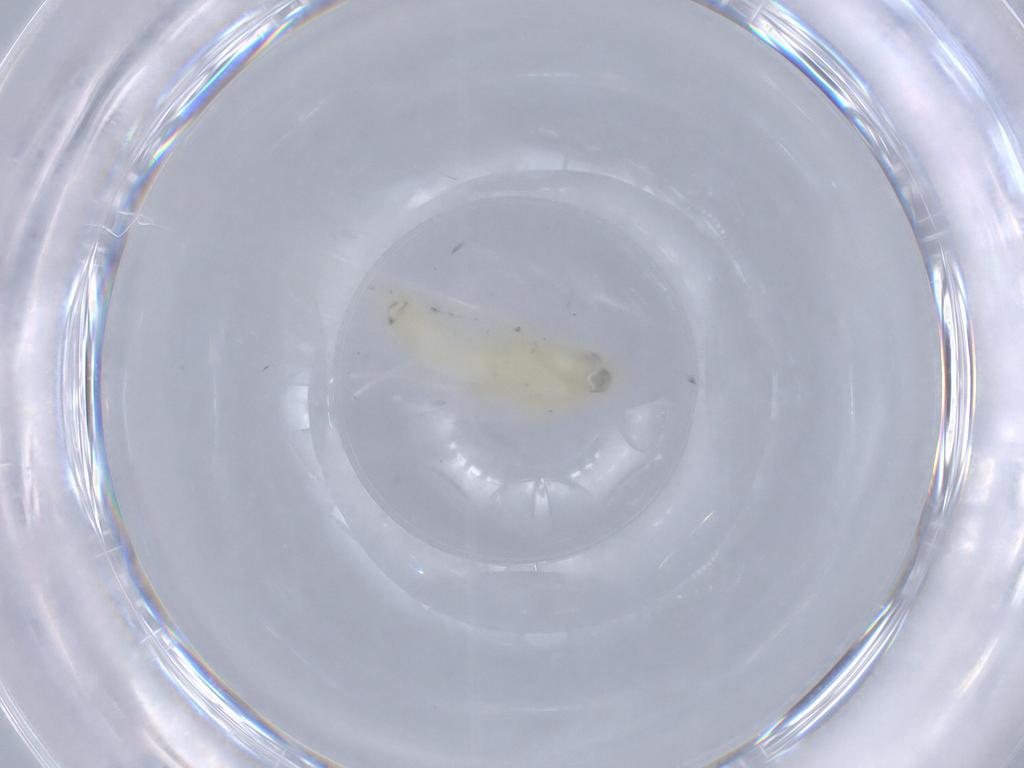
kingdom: Animalia
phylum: Arthropoda
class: Insecta
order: Hemiptera
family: Cicadellidae
